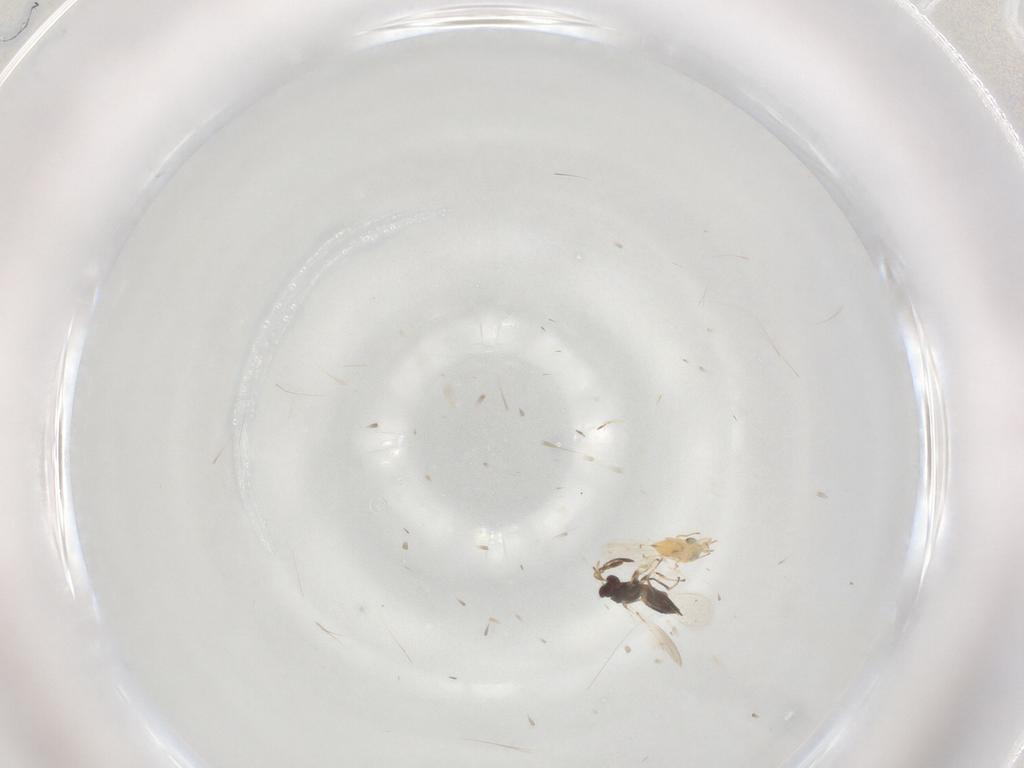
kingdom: Animalia
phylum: Arthropoda
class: Insecta
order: Hymenoptera
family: Mymaridae
